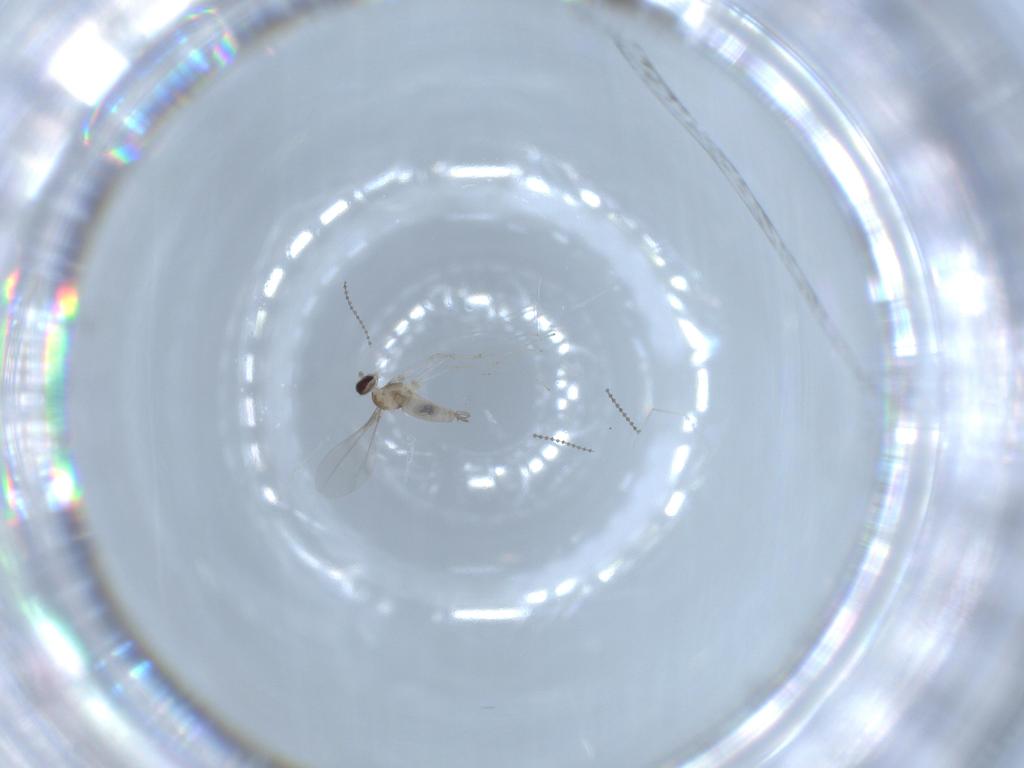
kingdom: Animalia
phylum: Arthropoda
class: Insecta
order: Diptera
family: Cecidomyiidae
